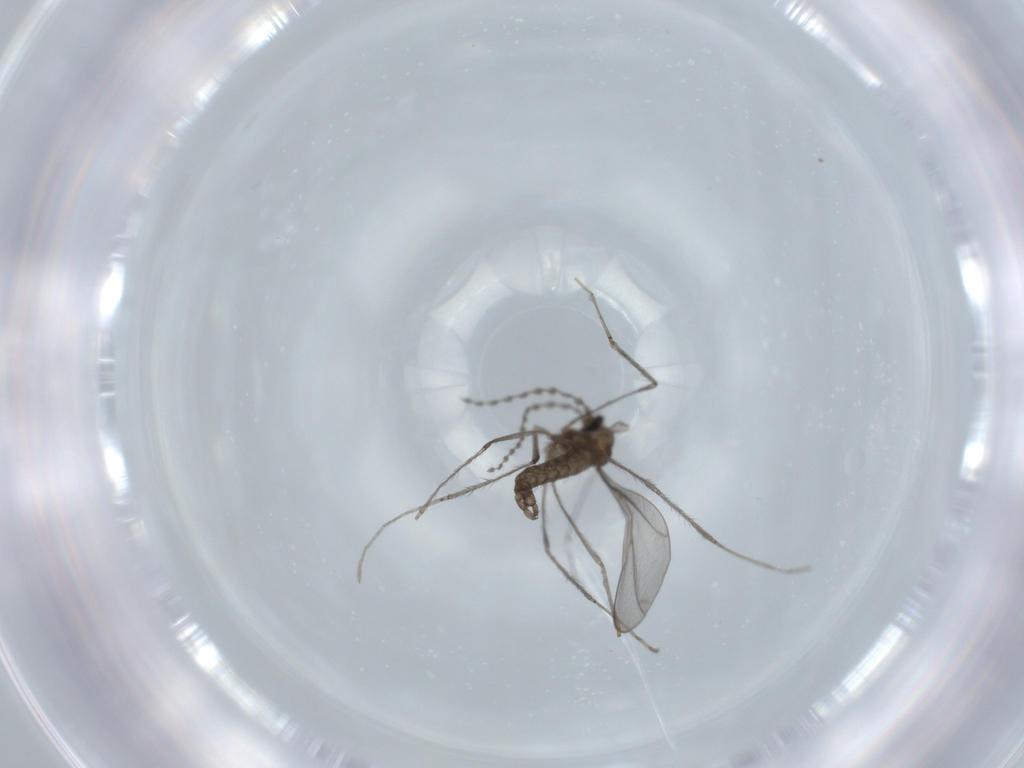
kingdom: Animalia
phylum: Arthropoda
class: Insecta
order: Diptera
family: Cecidomyiidae
